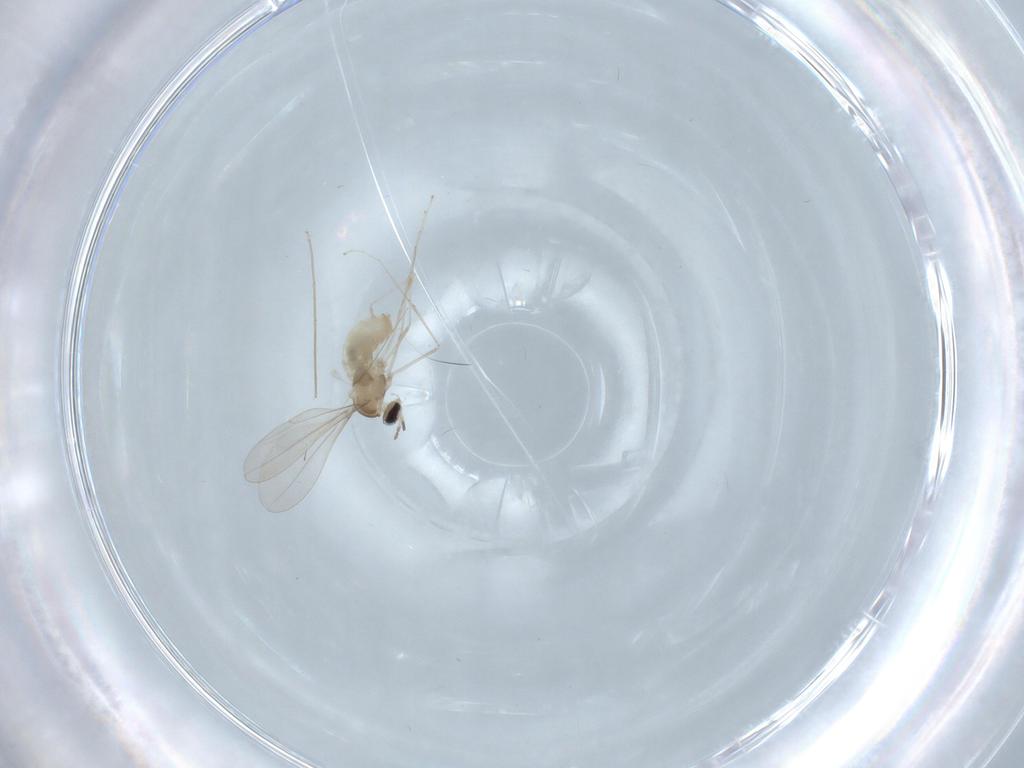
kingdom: Animalia
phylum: Arthropoda
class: Insecta
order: Diptera
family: Chironomidae
